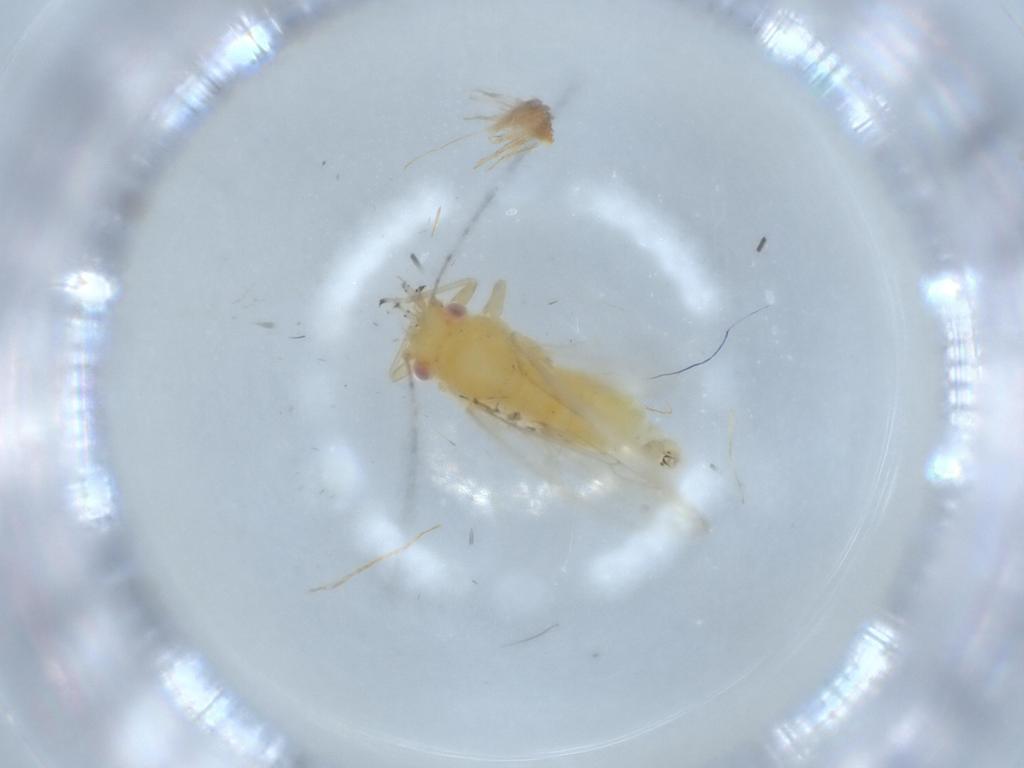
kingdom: Animalia
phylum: Arthropoda
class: Insecta
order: Hemiptera
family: Psyllidae
